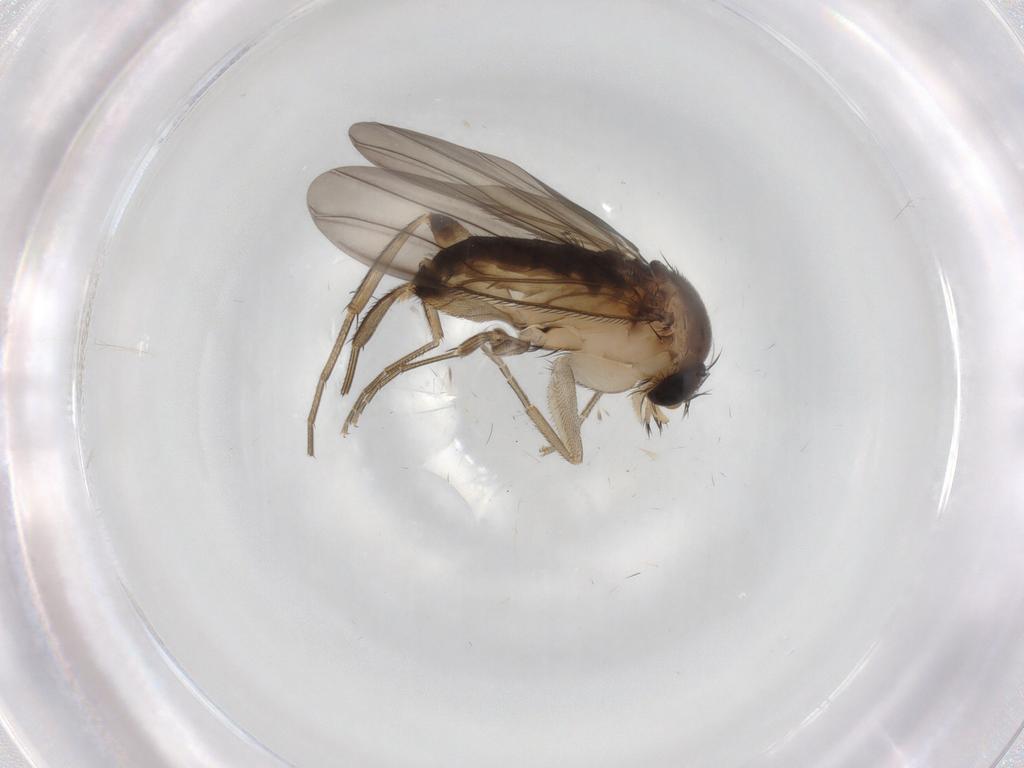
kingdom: Animalia
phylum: Arthropoda
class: Insecta
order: Diptera
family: Phoridae
